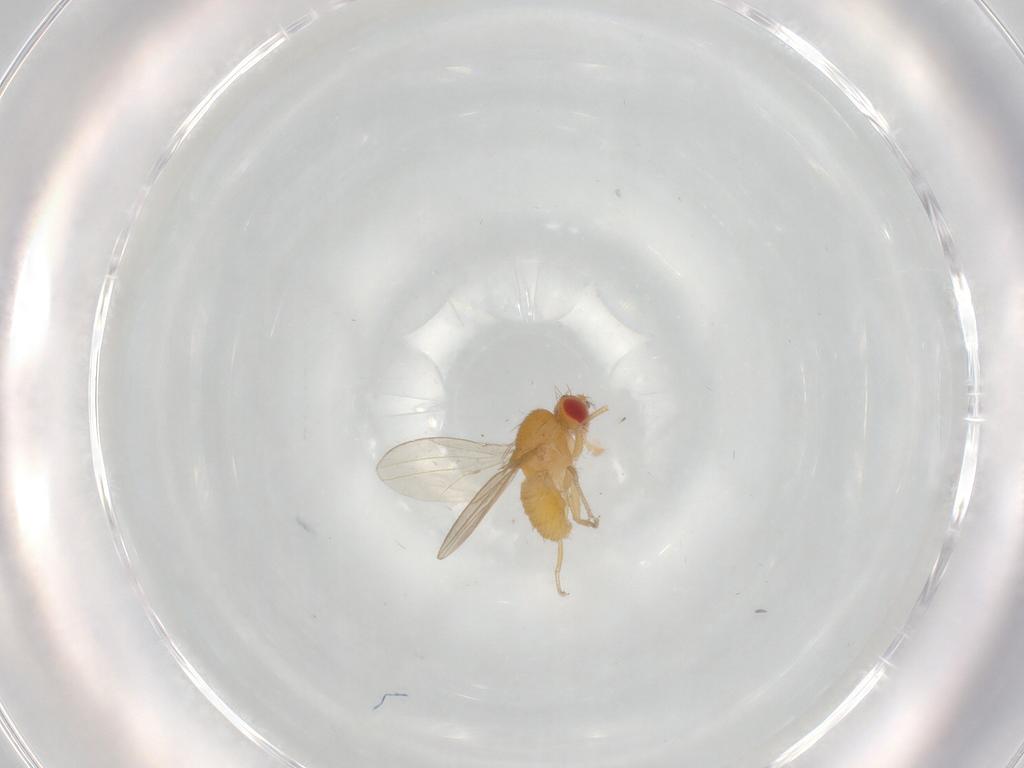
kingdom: Animalia
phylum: Arthropoda
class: Insecta
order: Diptera
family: Drosophilidae
